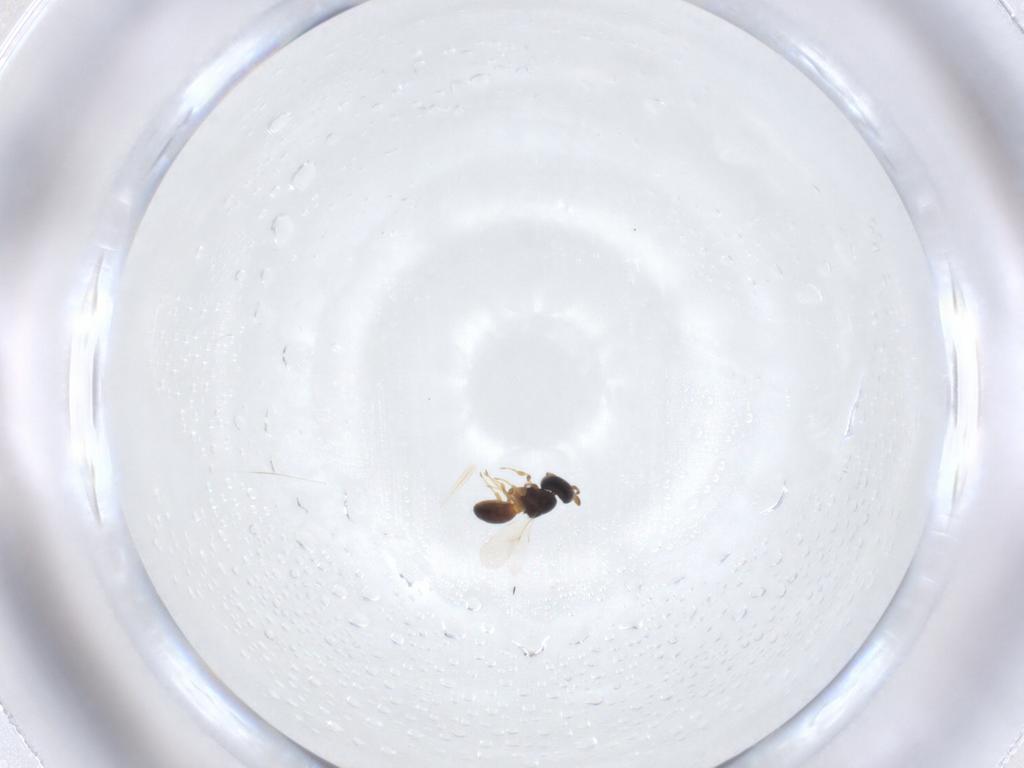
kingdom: Animalia
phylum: Arthropoda
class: Insecta
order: Hymenoptera
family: Scelionidae
